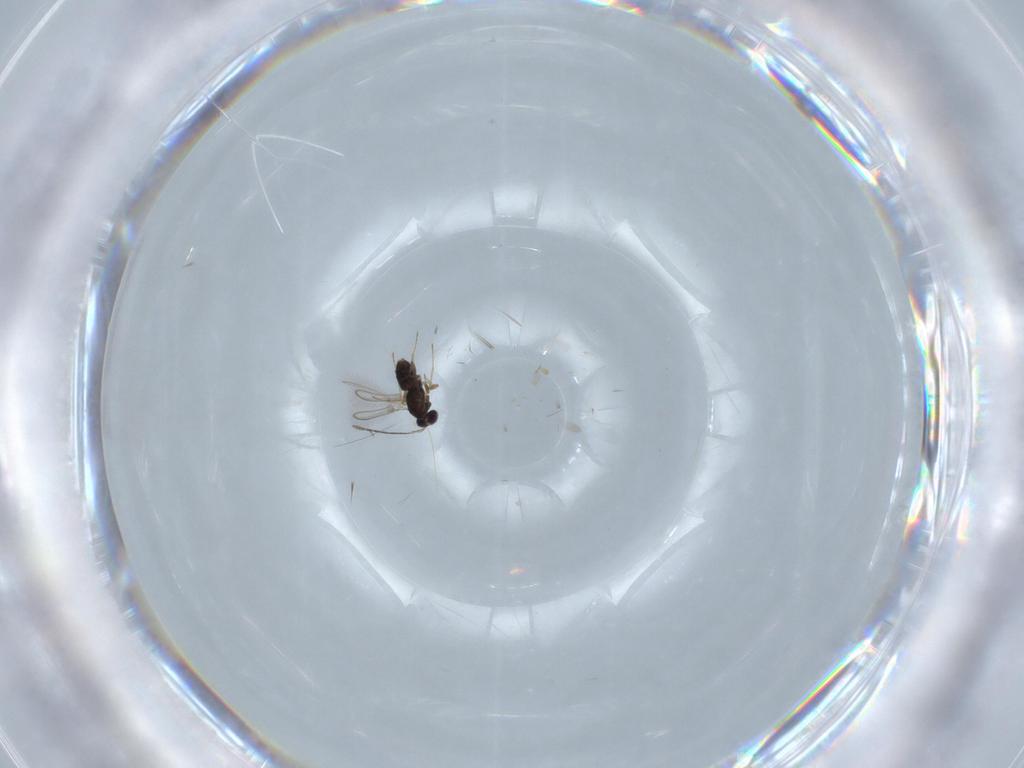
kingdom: Animalia
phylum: Arthropoda
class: Insecta
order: Hymenoptera
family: Mymaridae
